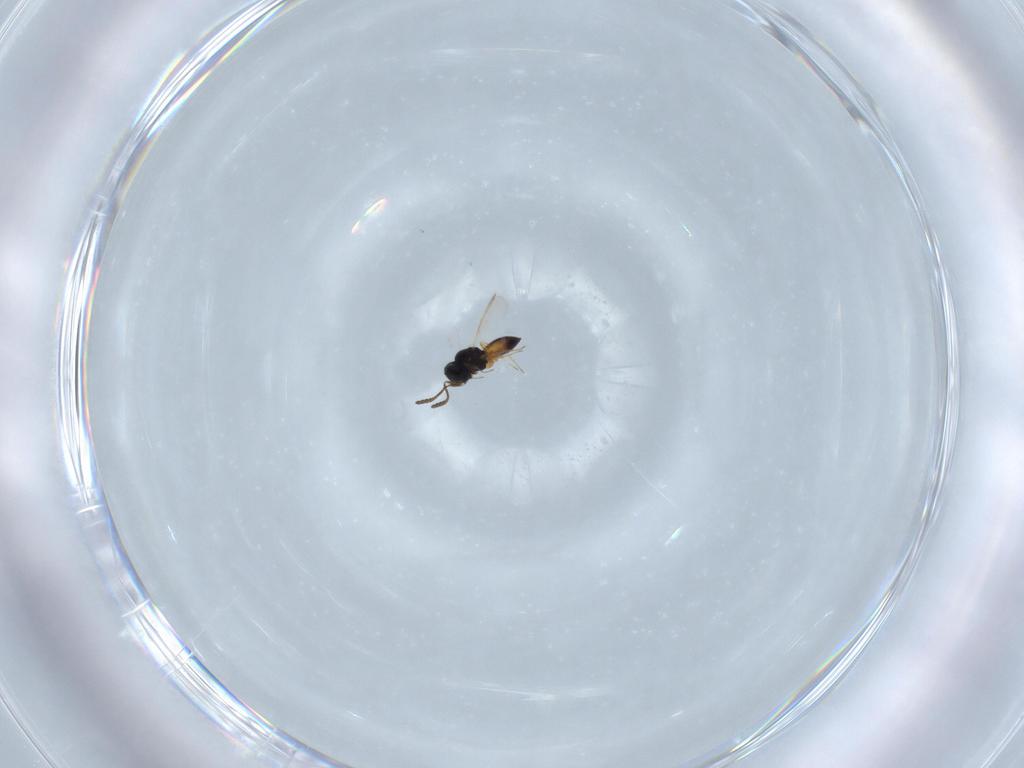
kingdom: Animalia
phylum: Arthropoda
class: Insecta
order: Hymenoptera
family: Scelionidae
